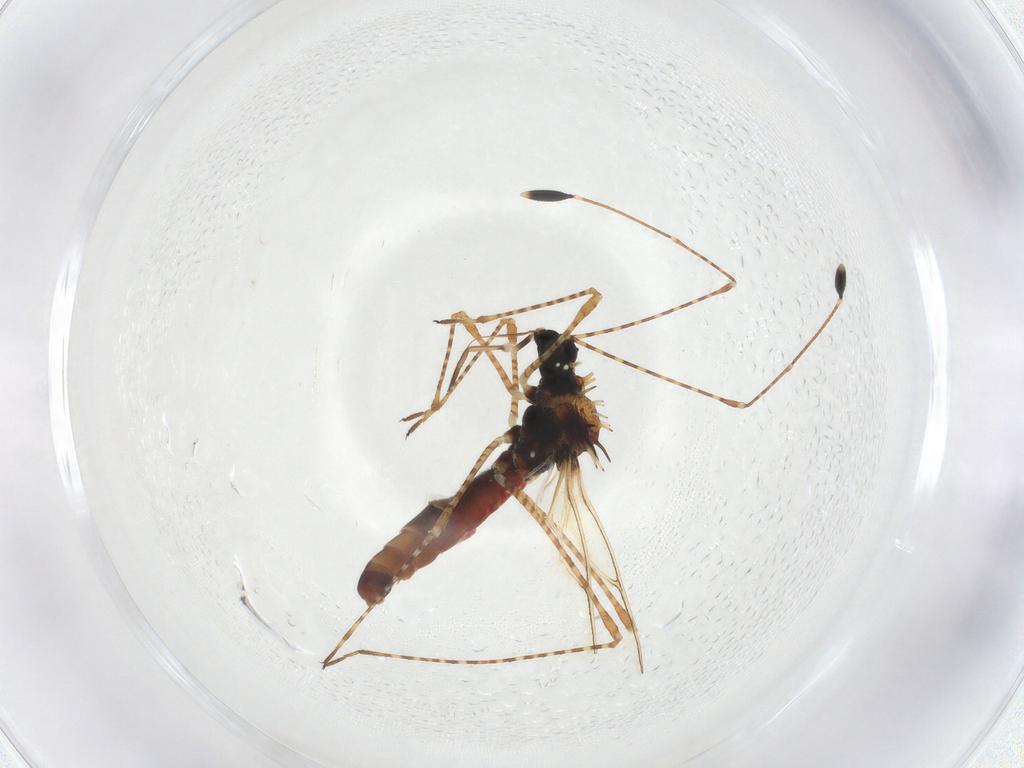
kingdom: Animalia
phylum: Arthropoda
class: Insecta
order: Hemiptera
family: Berytidae
